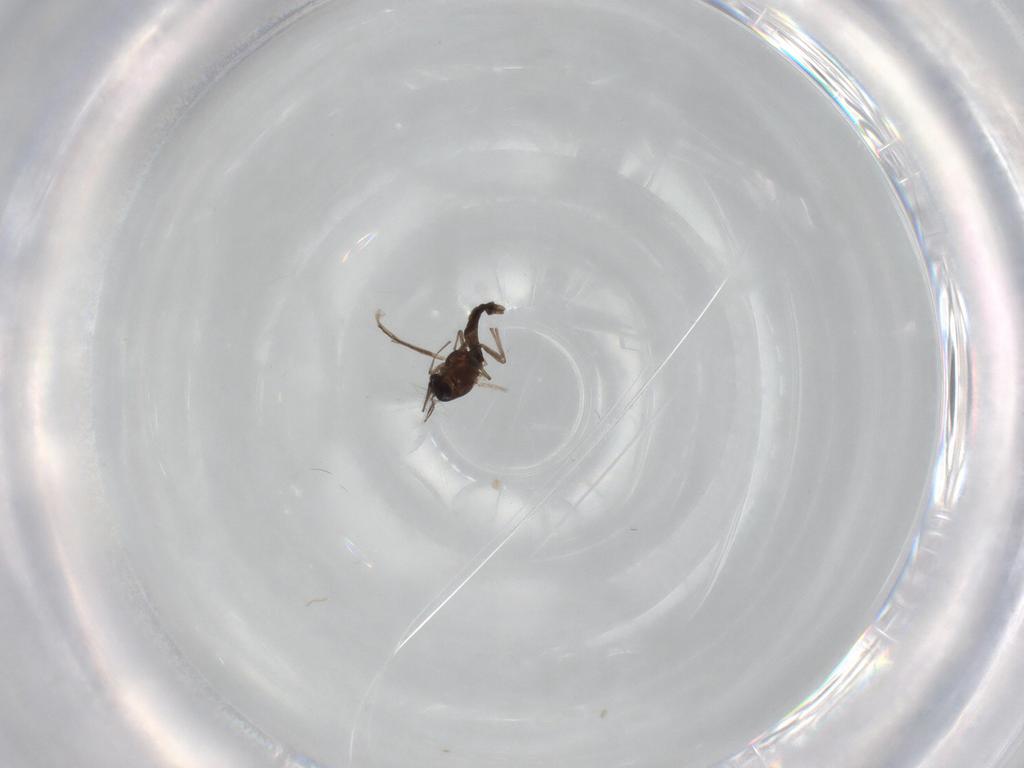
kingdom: Animalia
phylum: Arthropoda
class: Insecta
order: Diptera
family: Chironomidae
